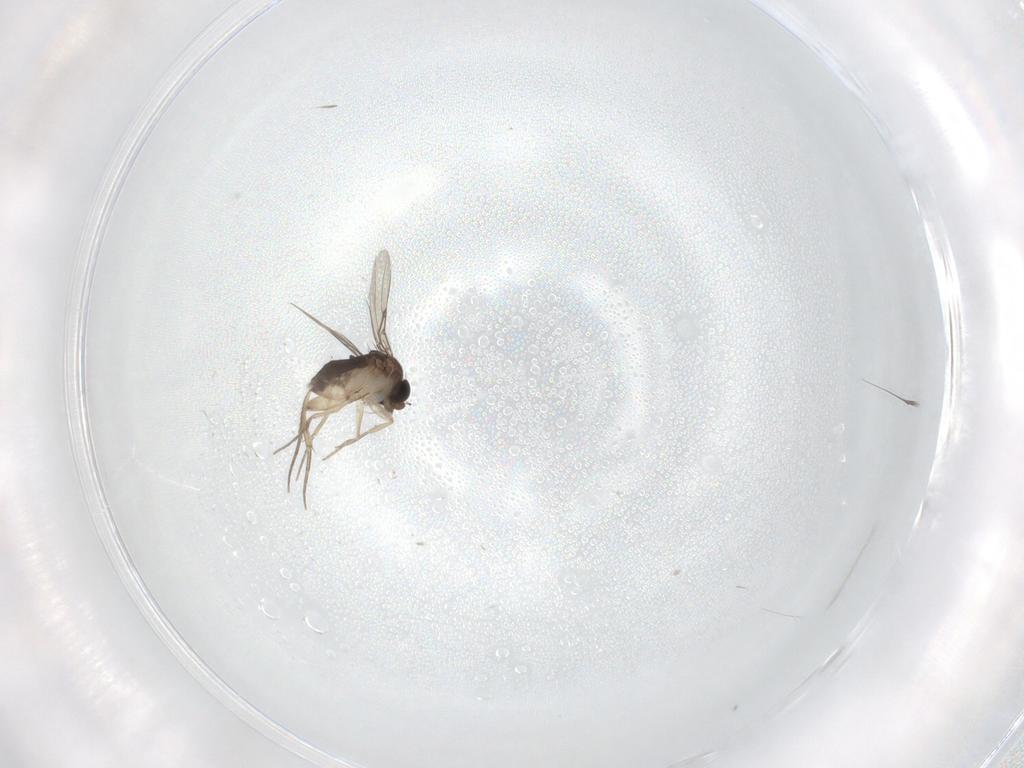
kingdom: Animalia
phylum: Arthropoda
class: Insecta
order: Diptera
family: Phoridae
